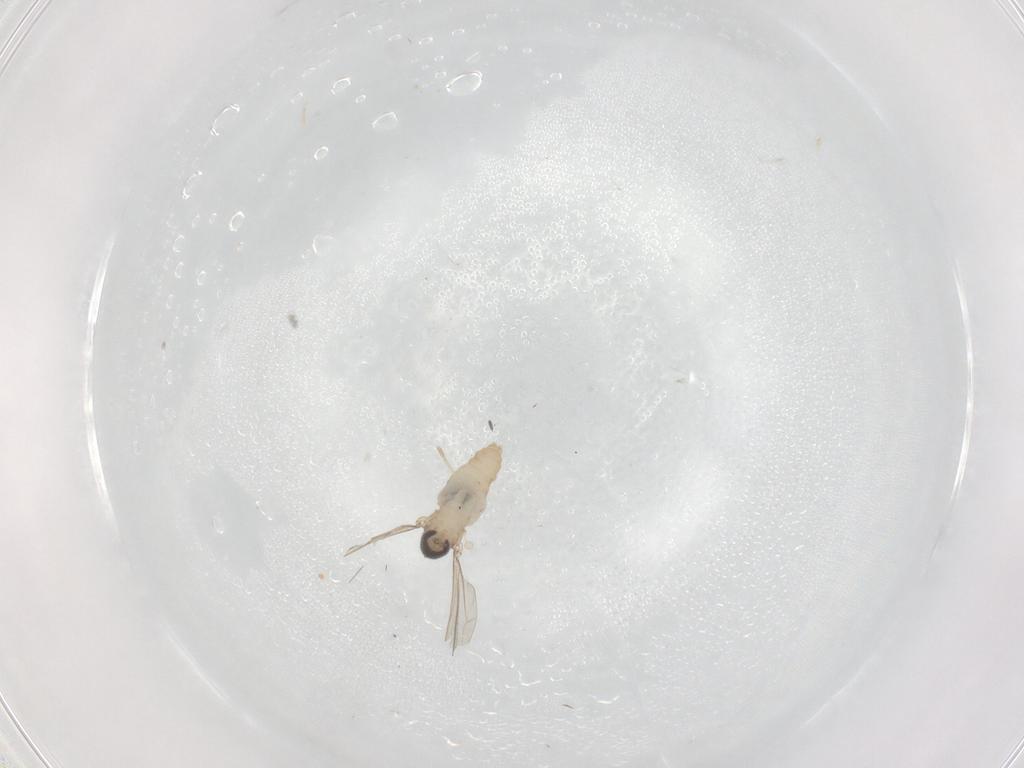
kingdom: Animalia
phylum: Arthropoda
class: Insecta
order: Diptera
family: Cecidomyiidae
